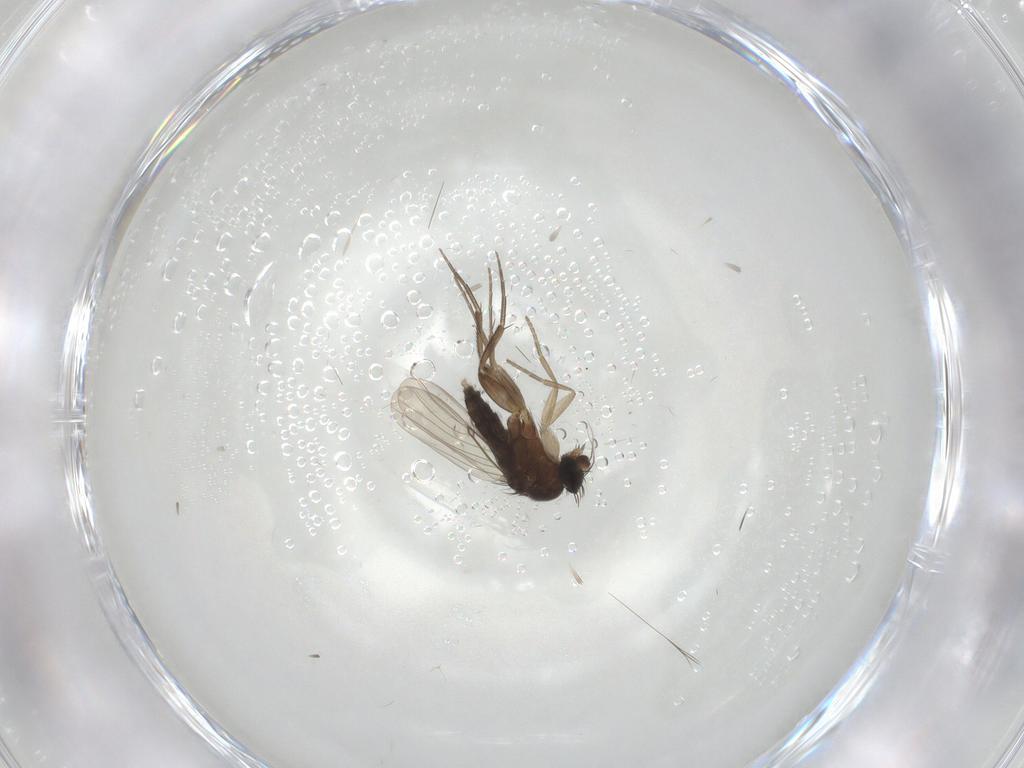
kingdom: Animalia
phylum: Arthropoda
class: Insecta
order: Diptera
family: Phoridae
